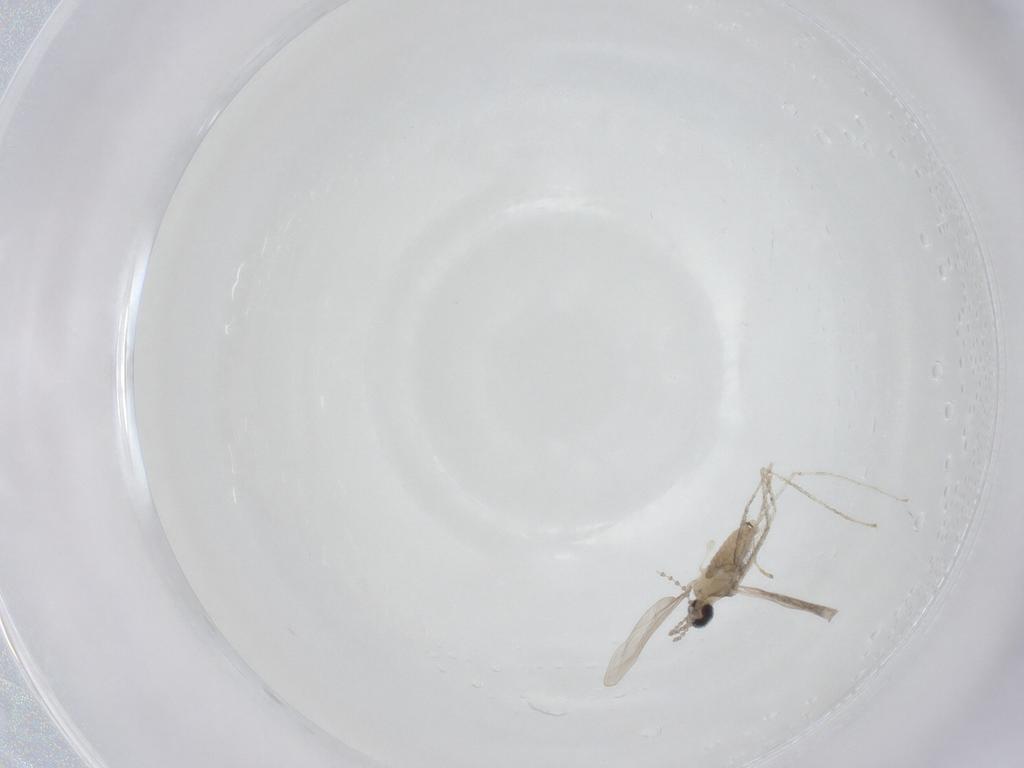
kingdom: Animalia
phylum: Arthropoda
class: Insecta
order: Diptera
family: Cecidomyiidae
